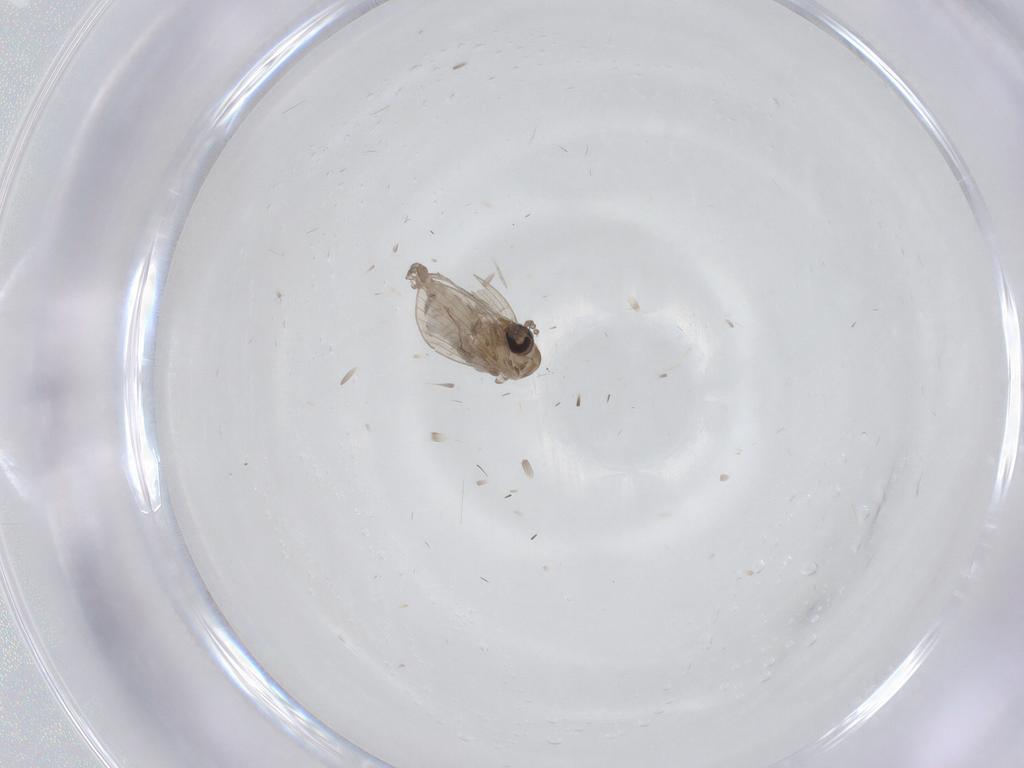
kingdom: Animalia
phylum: Arthropoda
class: Insecta
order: Diptera
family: Psychodidae
